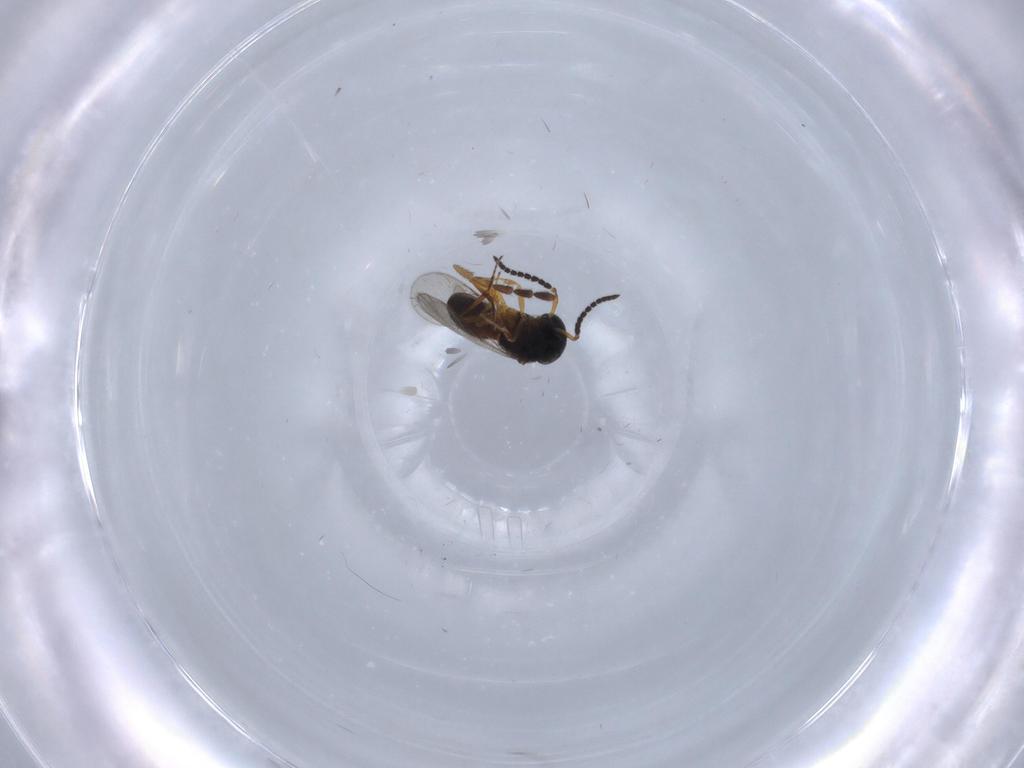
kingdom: Animalia
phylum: Arthropoda
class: Insecta
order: Hymenoptera
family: Scelionidae
